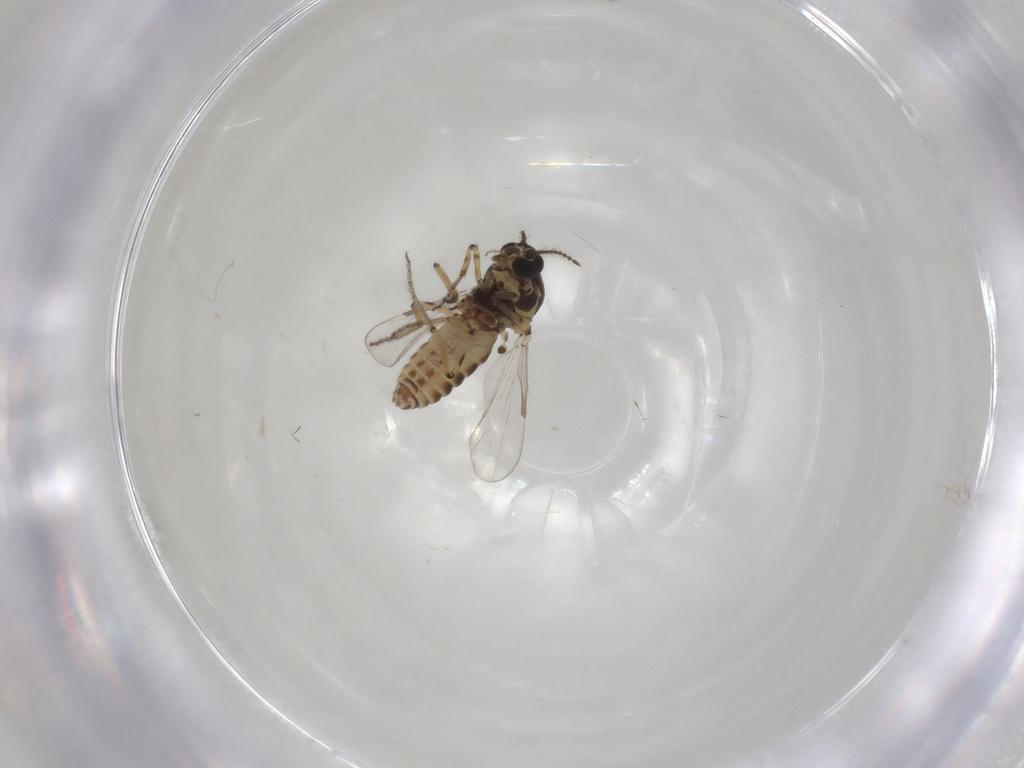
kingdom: Animalia
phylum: Arthropoda
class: Insecta
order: Diptera
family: Ceratopogonidae
